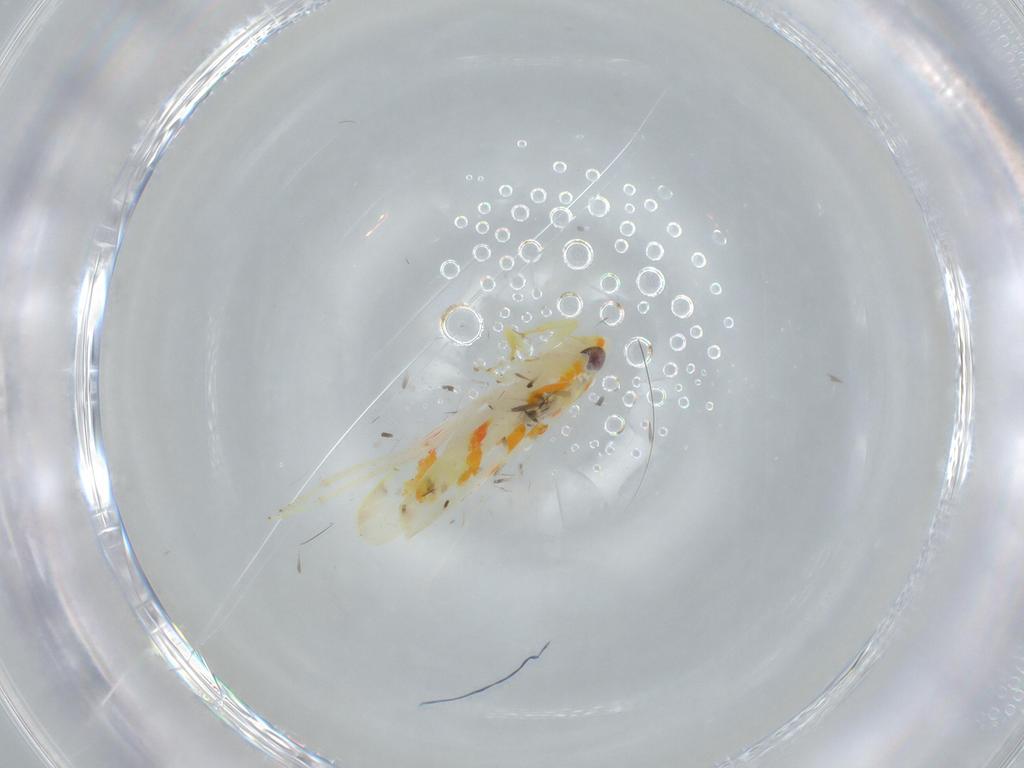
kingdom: Animalia
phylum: Arthropoda
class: Insecta
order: Hemiptera
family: Cicadellidae
